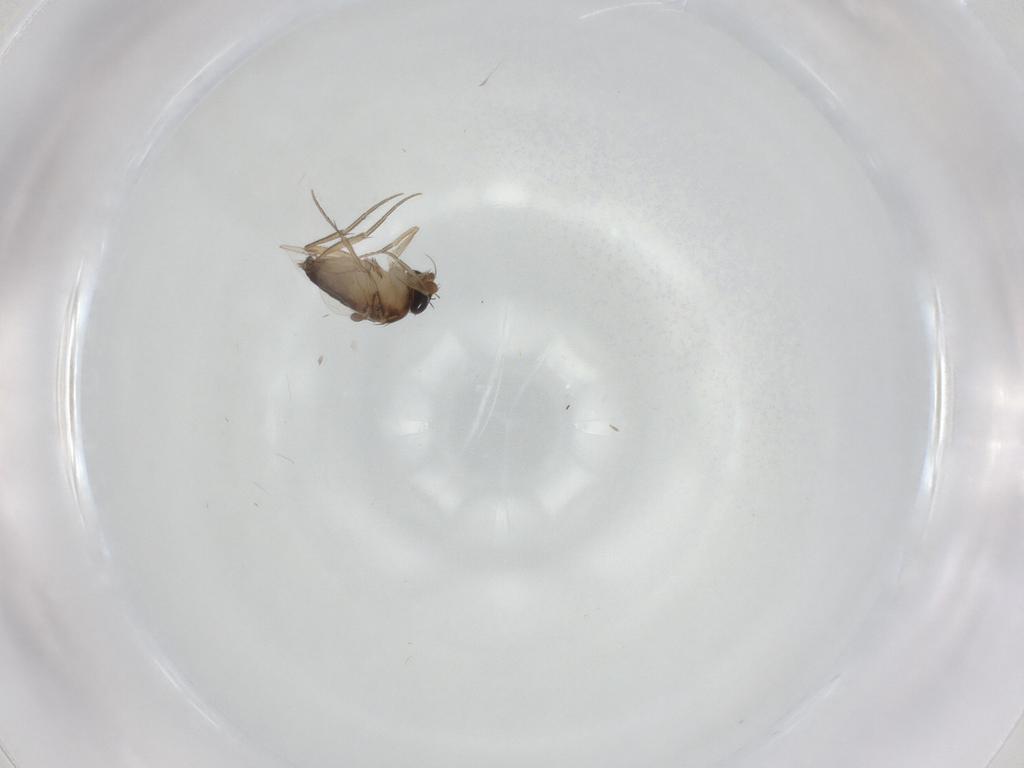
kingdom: Animalia
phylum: Arthropoda
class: Insecta
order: Diptera
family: Phoridae
